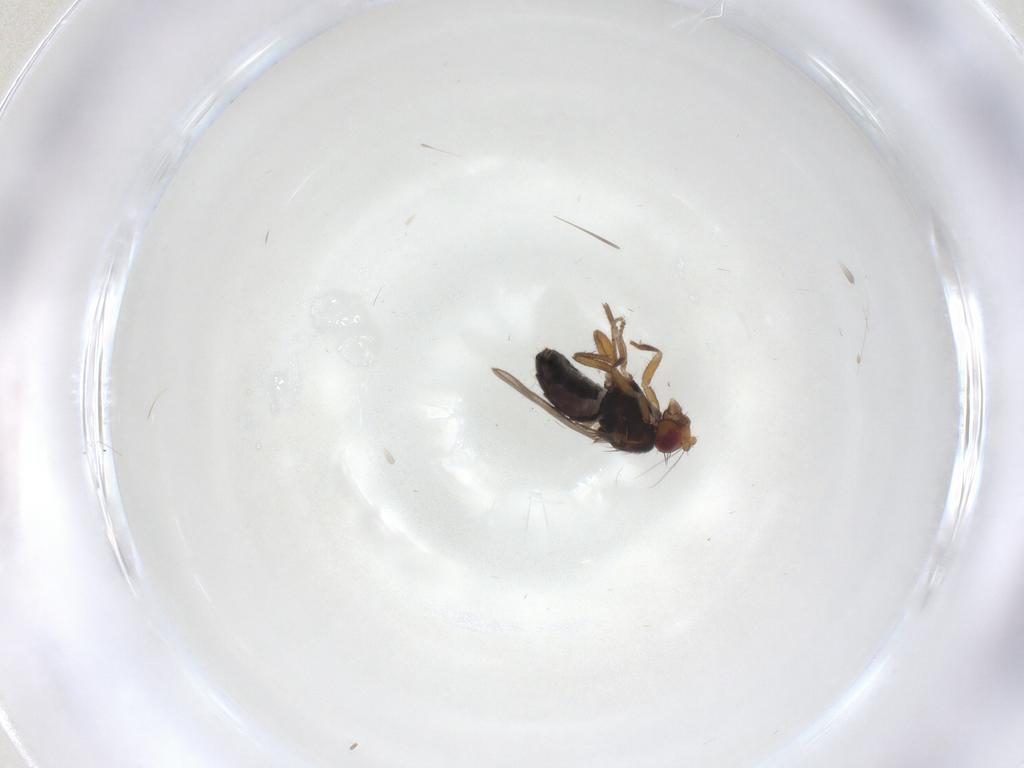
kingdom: Animalia
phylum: Arthropoda
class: Insecta
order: Diptera
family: Sphaeroceridae
